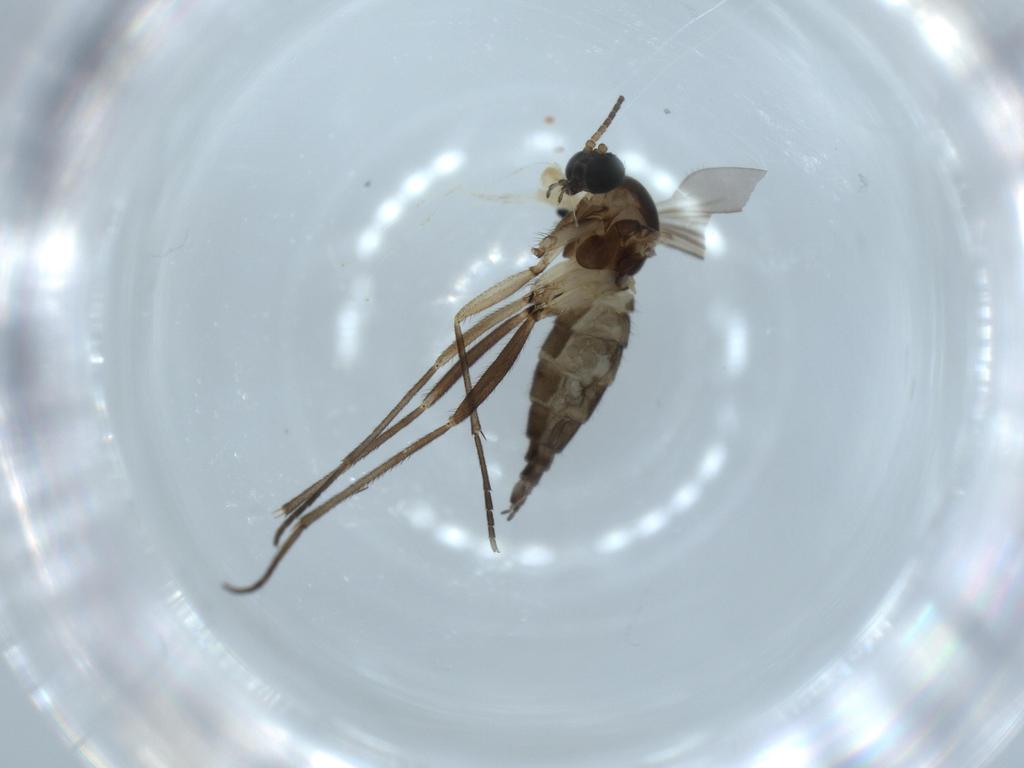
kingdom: Animalia
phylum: Arthropoda
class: Insecta
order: Diptera
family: Sciaridae
